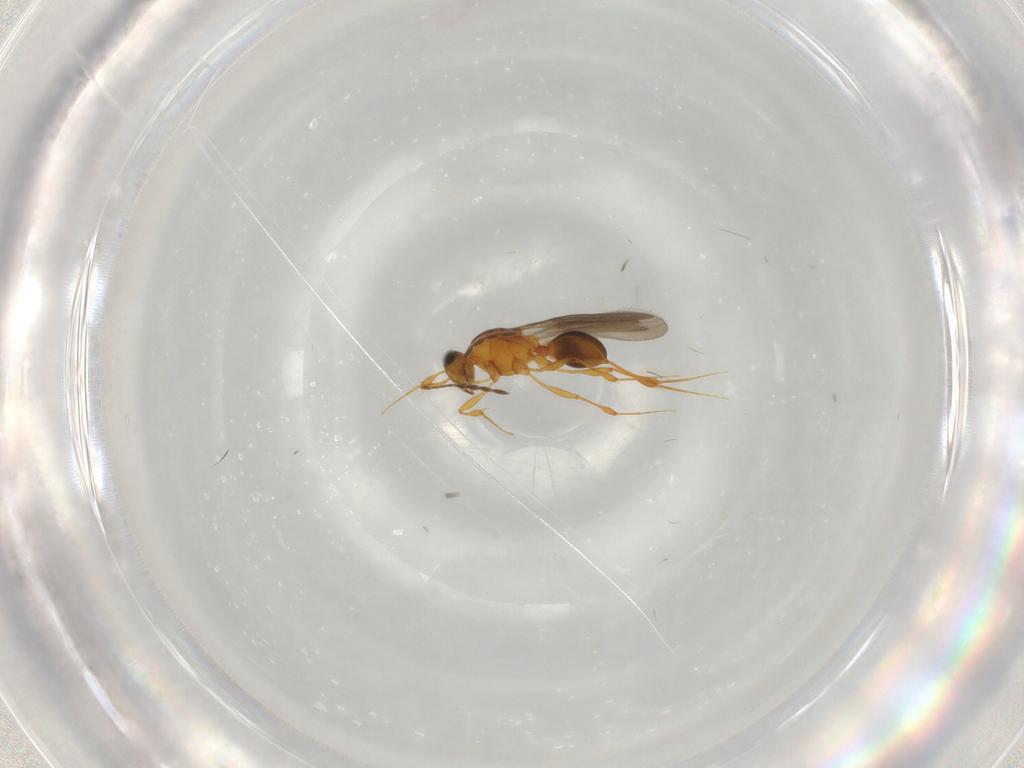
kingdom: Animalia
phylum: Arthropoda
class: Insecta
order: Hymenoptera
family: Platygastridae
